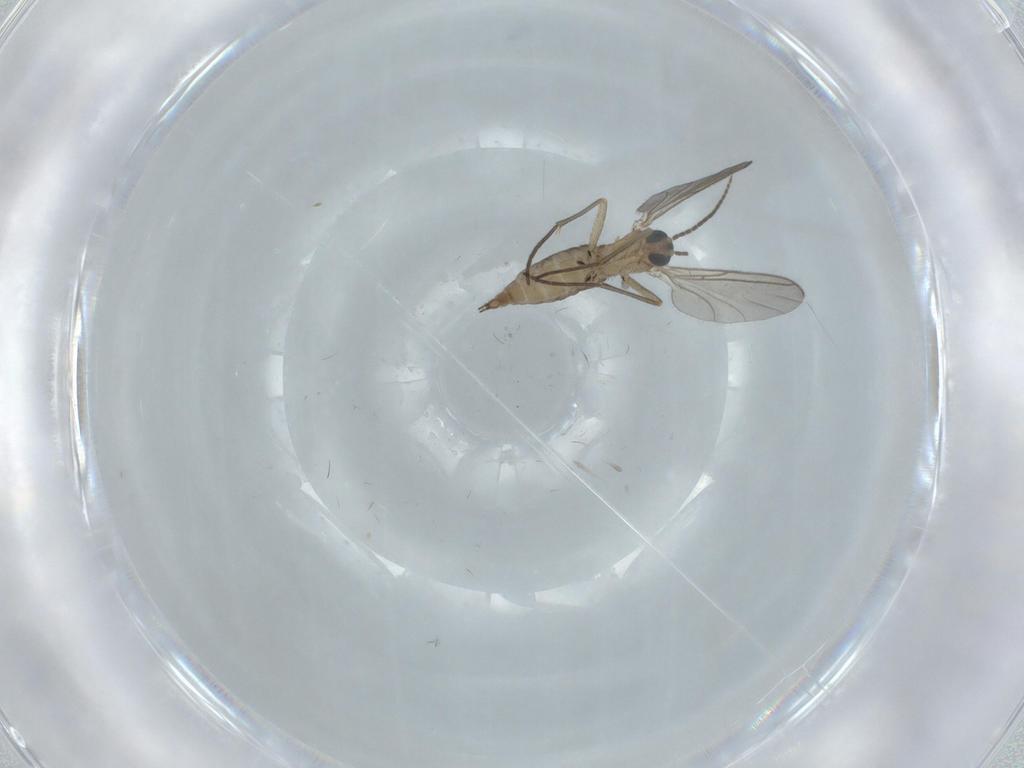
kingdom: Animalia
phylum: Arthropoda
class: Insecta
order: Diptera
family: Sciaridae
